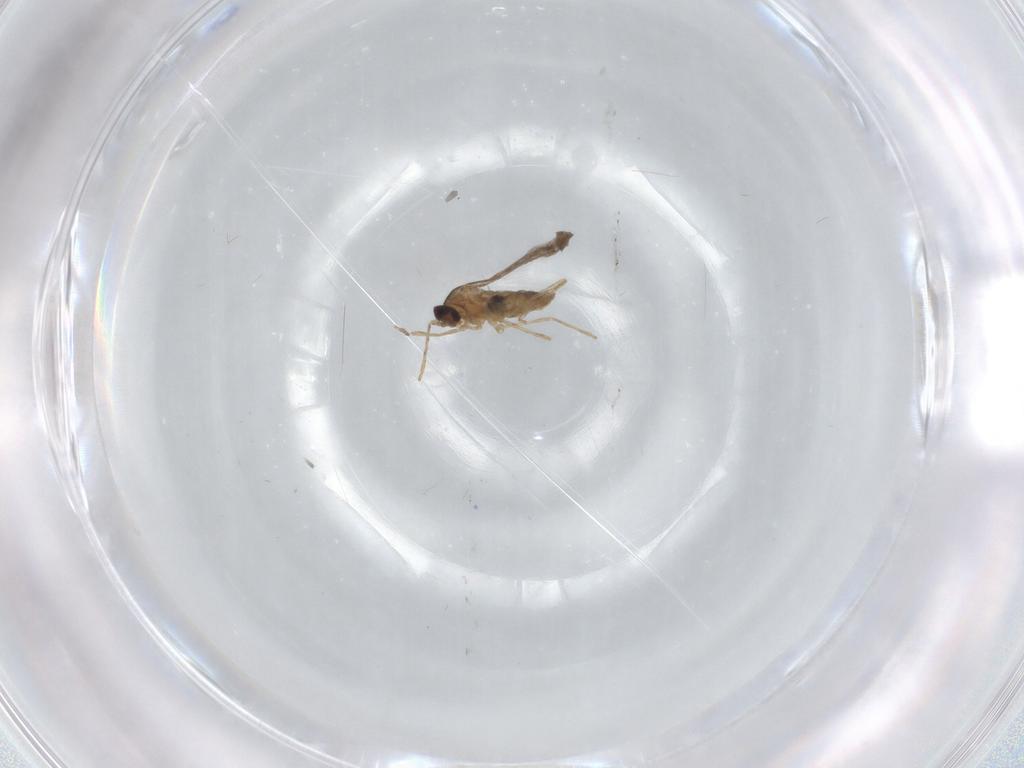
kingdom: Animalia
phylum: Arthropoda
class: Insecta
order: Diptera
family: Cecidomyiidae
